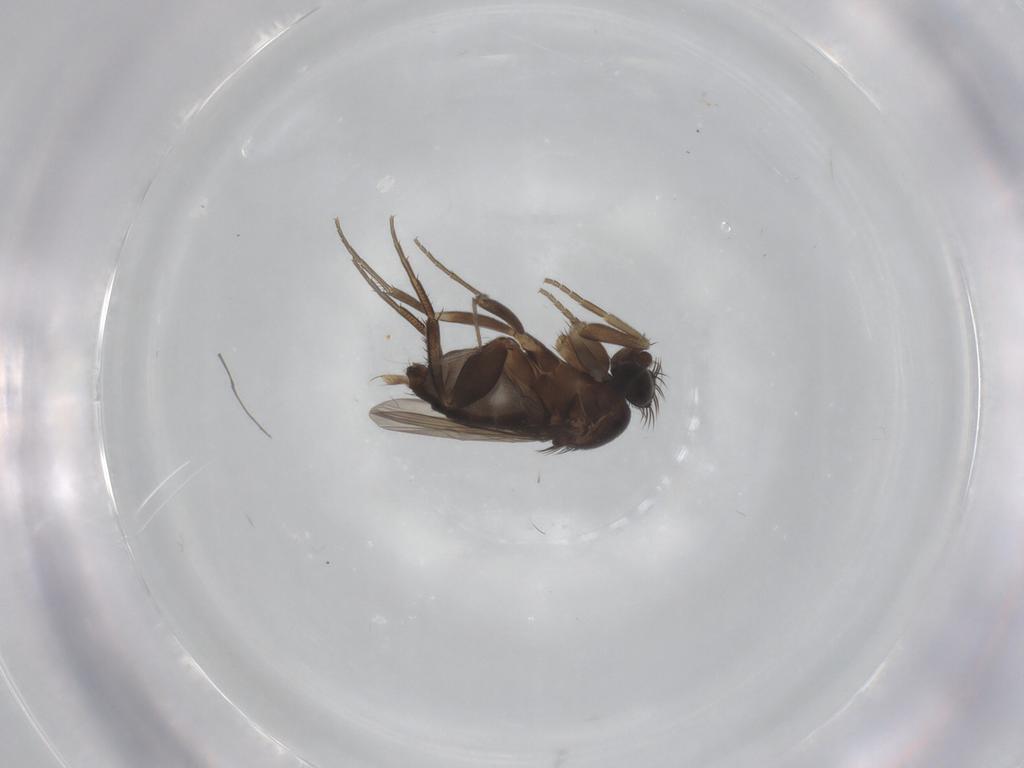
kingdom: Animalia
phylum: Arthropoda
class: Insecta
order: Diptera
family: Phoridae
